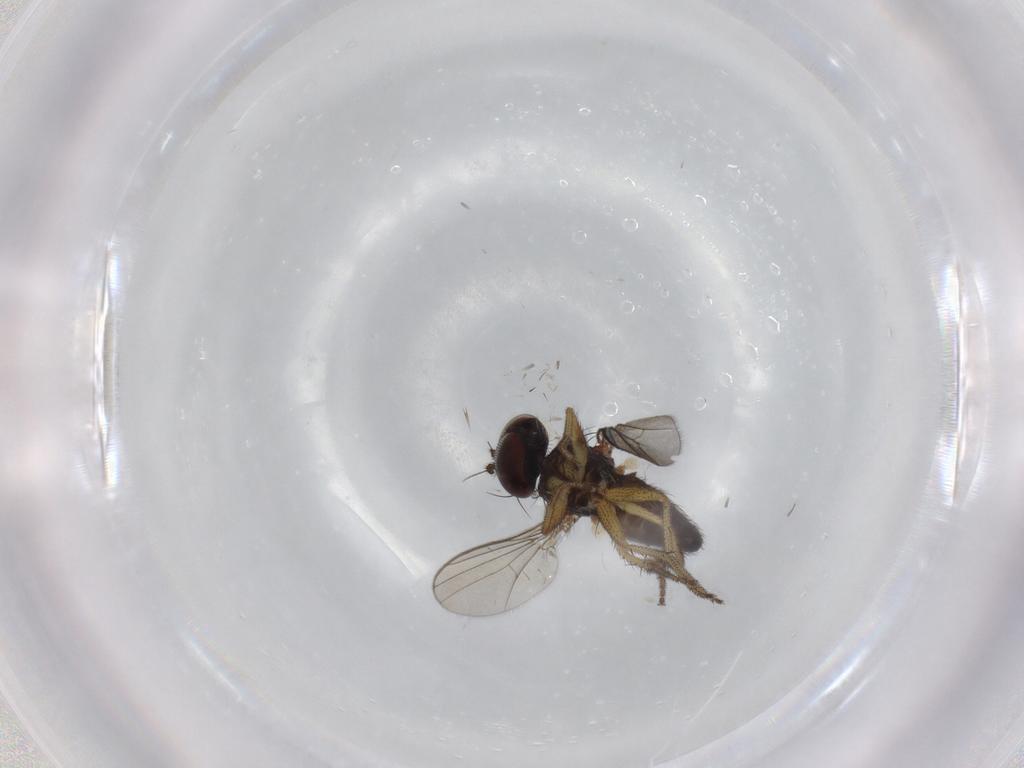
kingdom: Animalia
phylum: Arthropoda
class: Insecta
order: Diptera
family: Dolichopodidae
